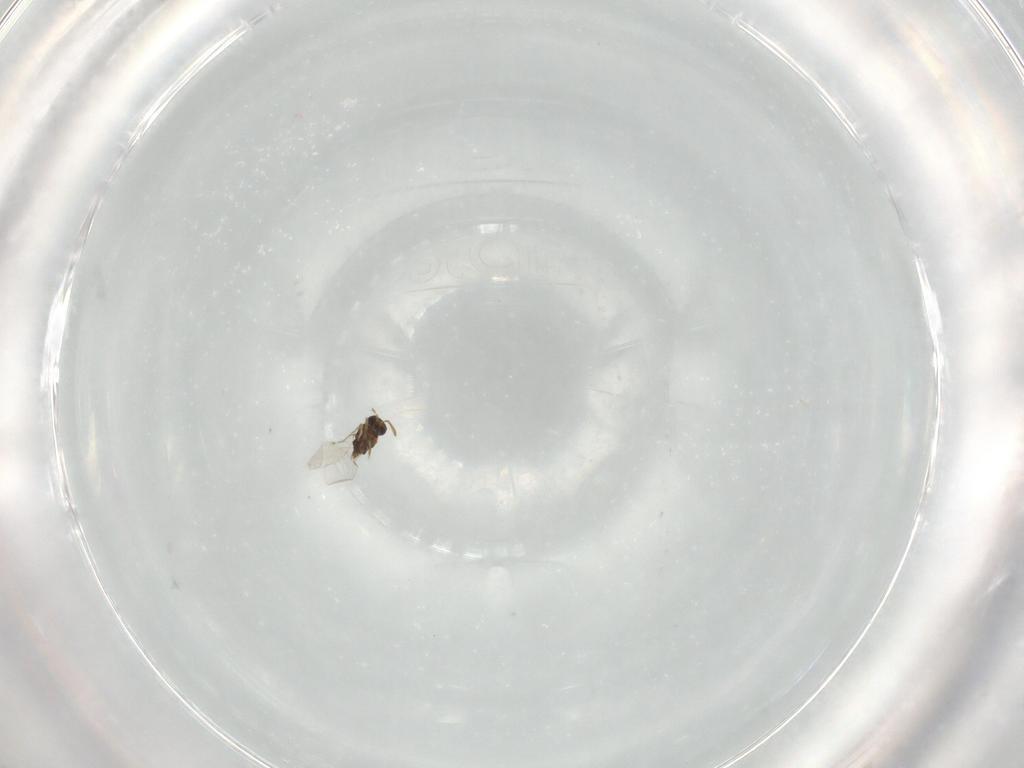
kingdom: Animalia
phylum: Arthropoda
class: Insecta
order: Hymenoptera
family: Encyrtidae
